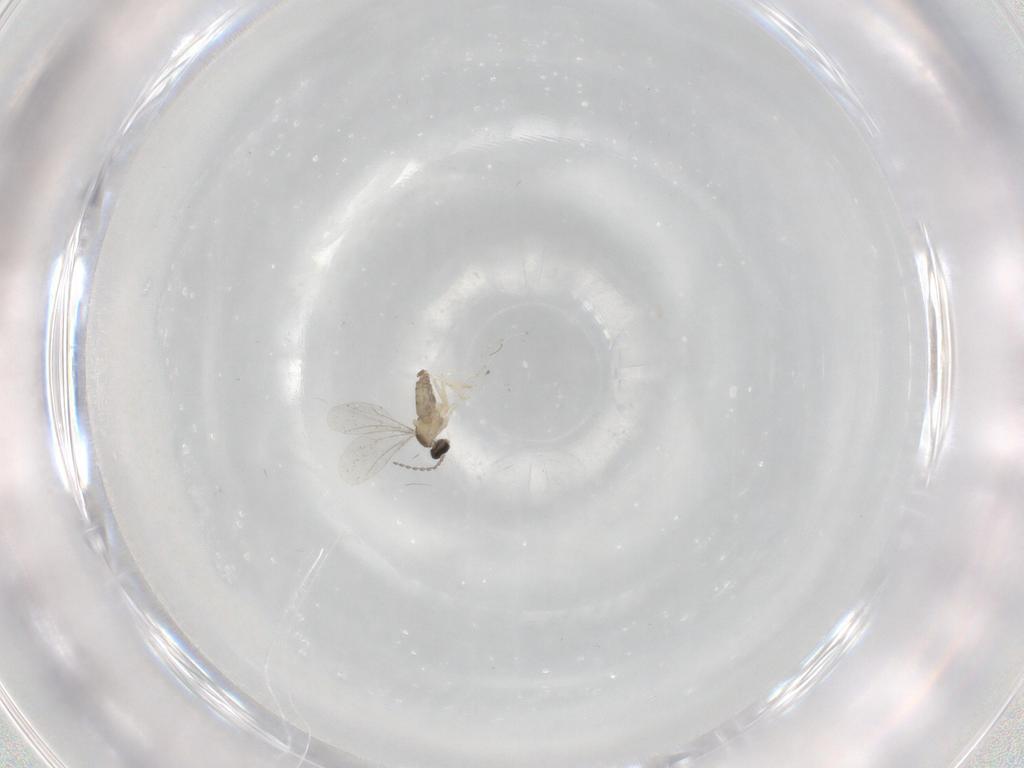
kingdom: Animalia
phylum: Arthropoda
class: Insecta
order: Diptera
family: Cecidomyiidae
